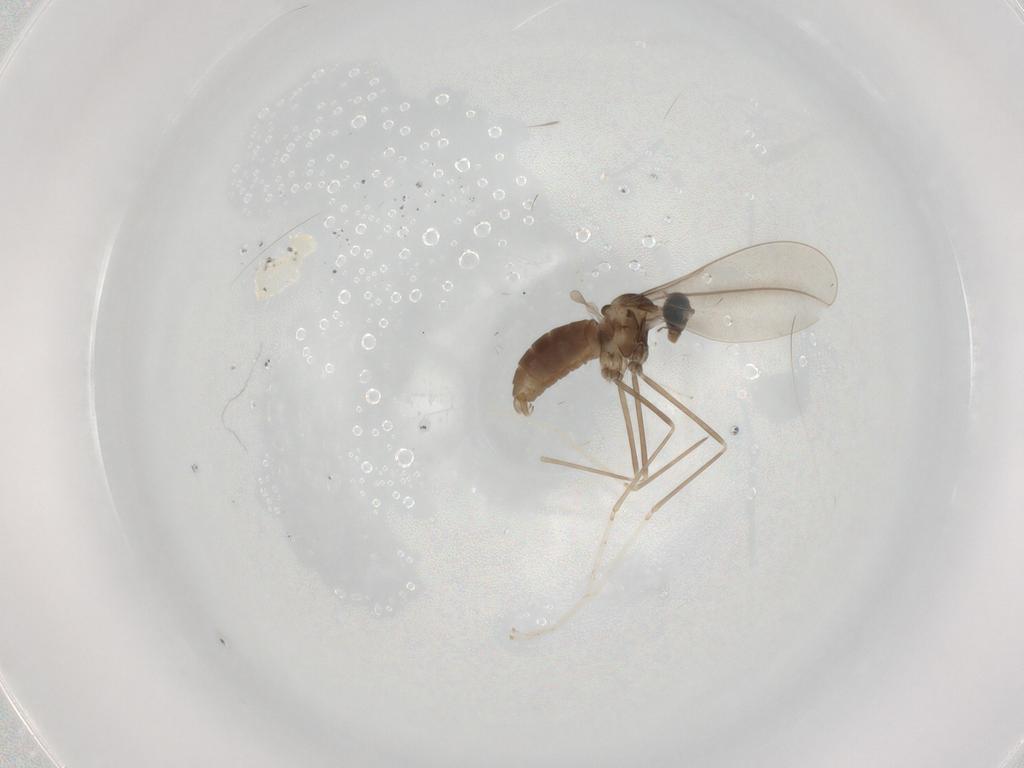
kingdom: Animalia
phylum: Arthropoda
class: Insecta
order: Diptera
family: Cecidomyiidae
